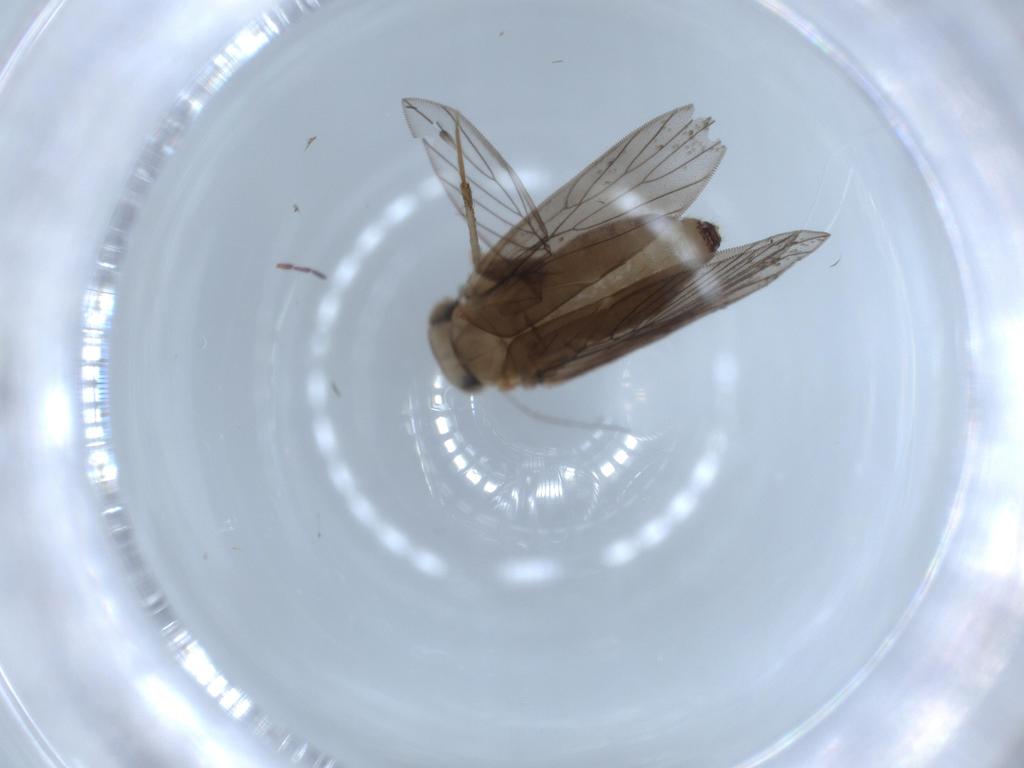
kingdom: Animalia
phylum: Arthropoda
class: Insecta
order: Psocodea
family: Lepidopsocidae
